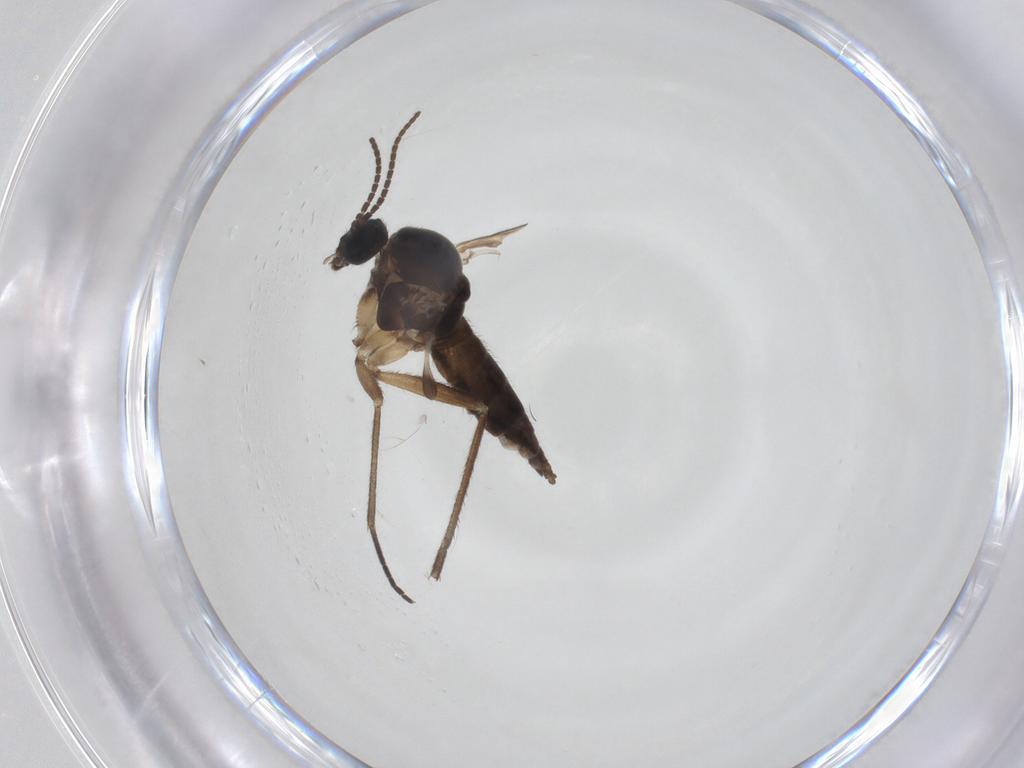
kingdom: Animalia
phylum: Arthropoda
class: Insecta
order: Diptera
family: Sciaridae
